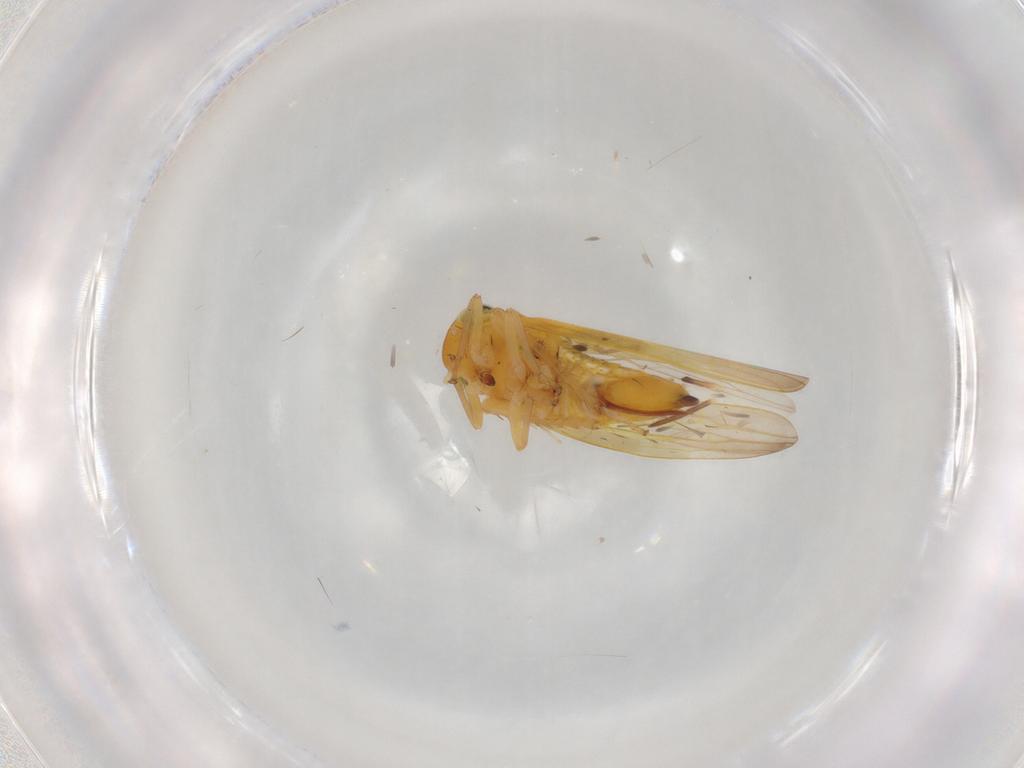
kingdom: Animalia
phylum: Arthropoda
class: Insecta
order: Hemiptera
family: Cicadellidae
